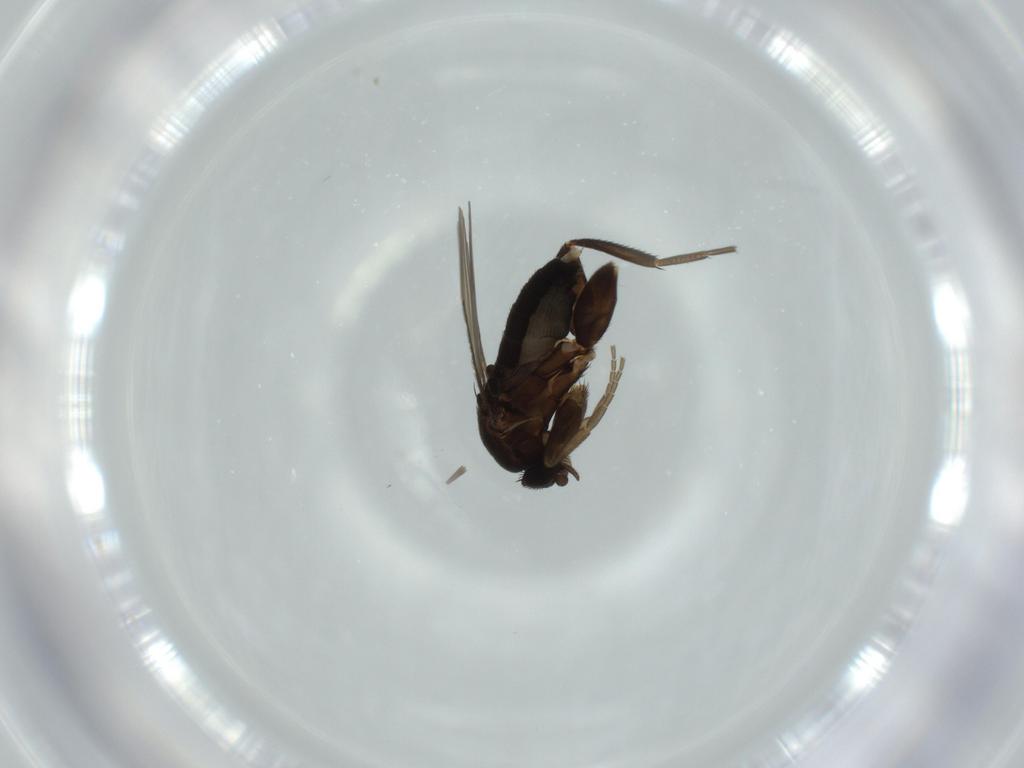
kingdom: Animalia
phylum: Arthropoda
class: Insecta
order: Diptera
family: Phoridae
